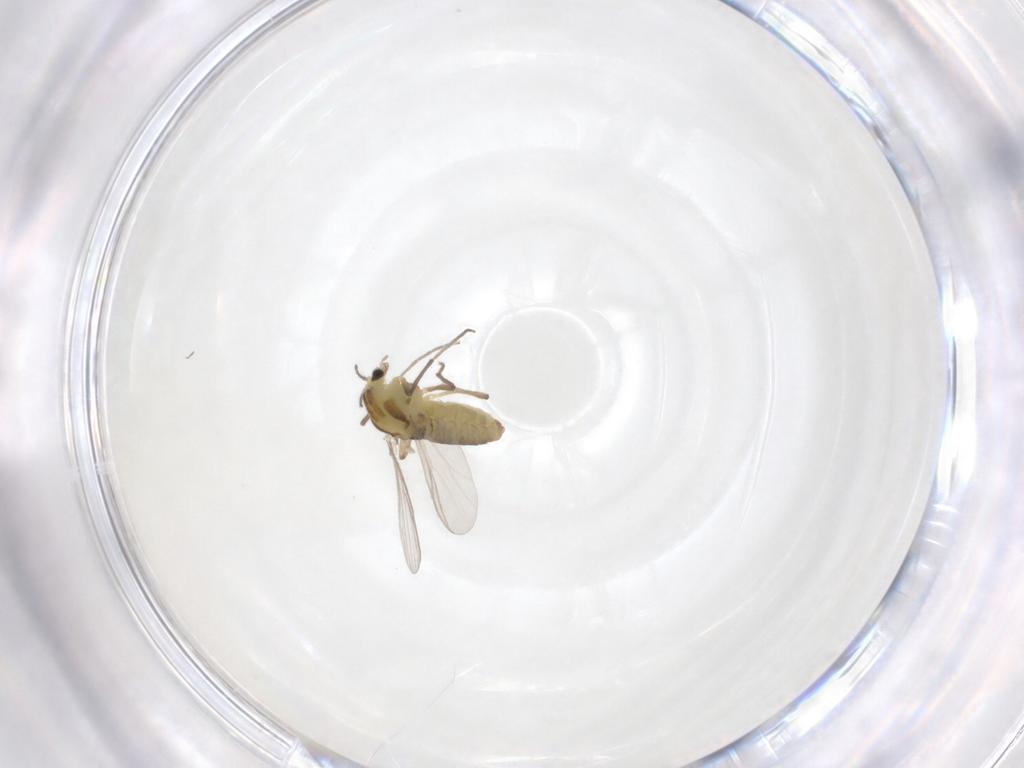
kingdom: Animalia
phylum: Arthropoda
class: Insecta
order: Diptera
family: Chironomidae
